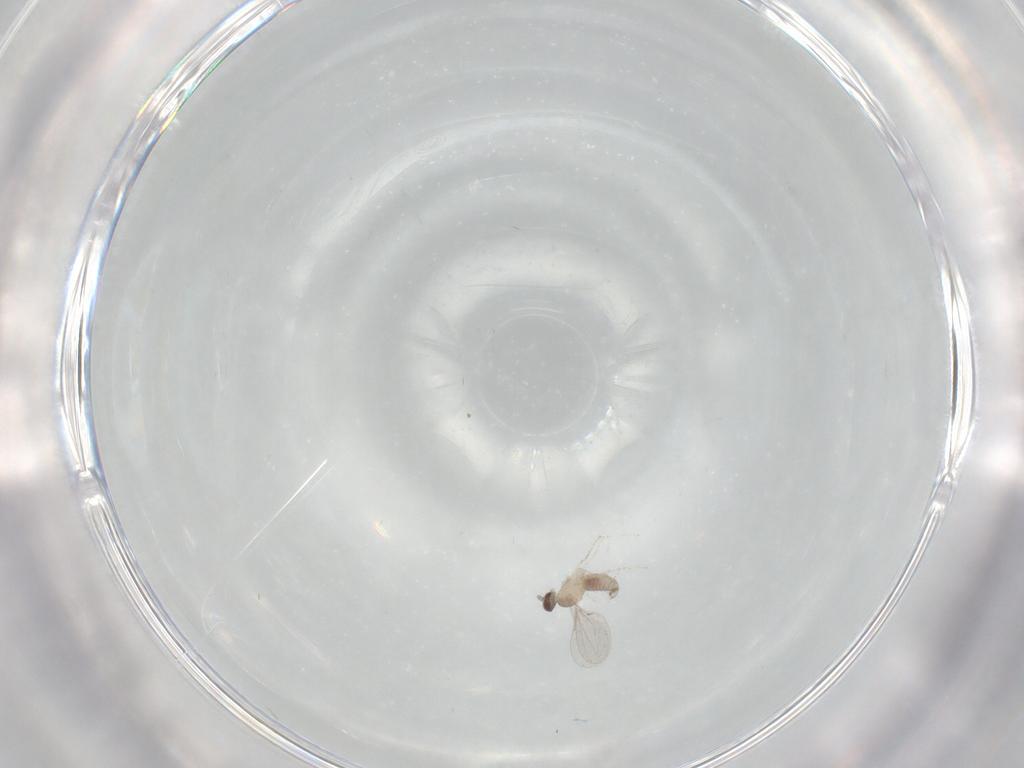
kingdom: Animalia
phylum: Arthropoda
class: Insecta
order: Diptera
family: Cecidomyiidae
